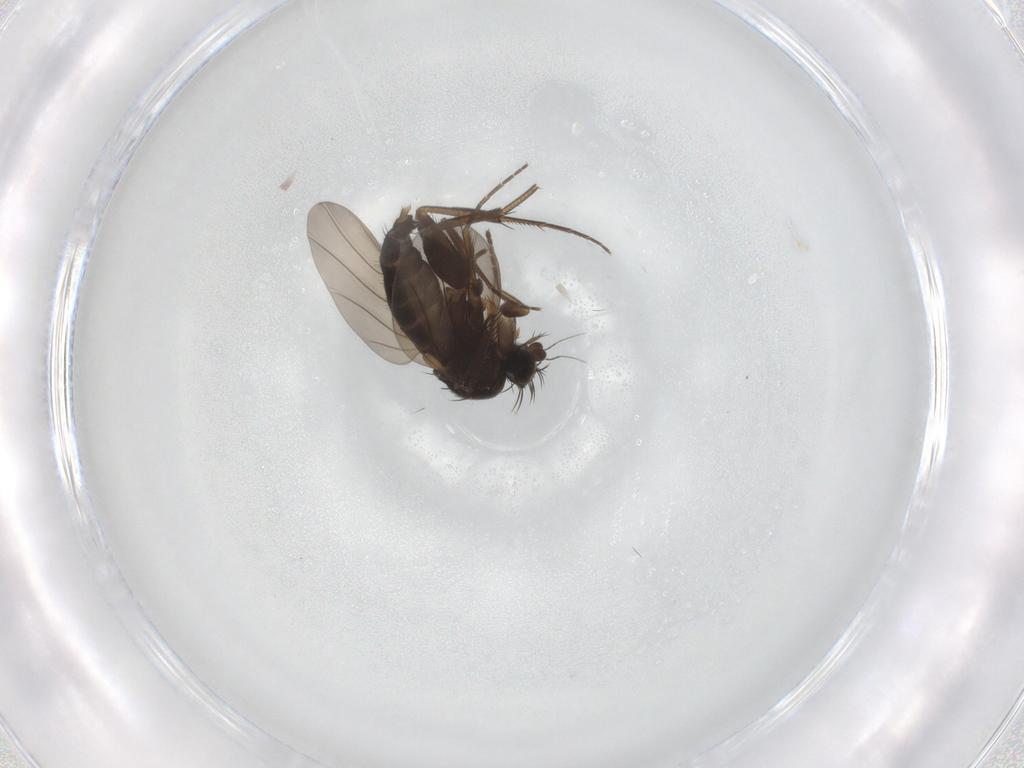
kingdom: Animalia
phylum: Arthropoda
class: Insecta
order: Diptera
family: Phoridae
